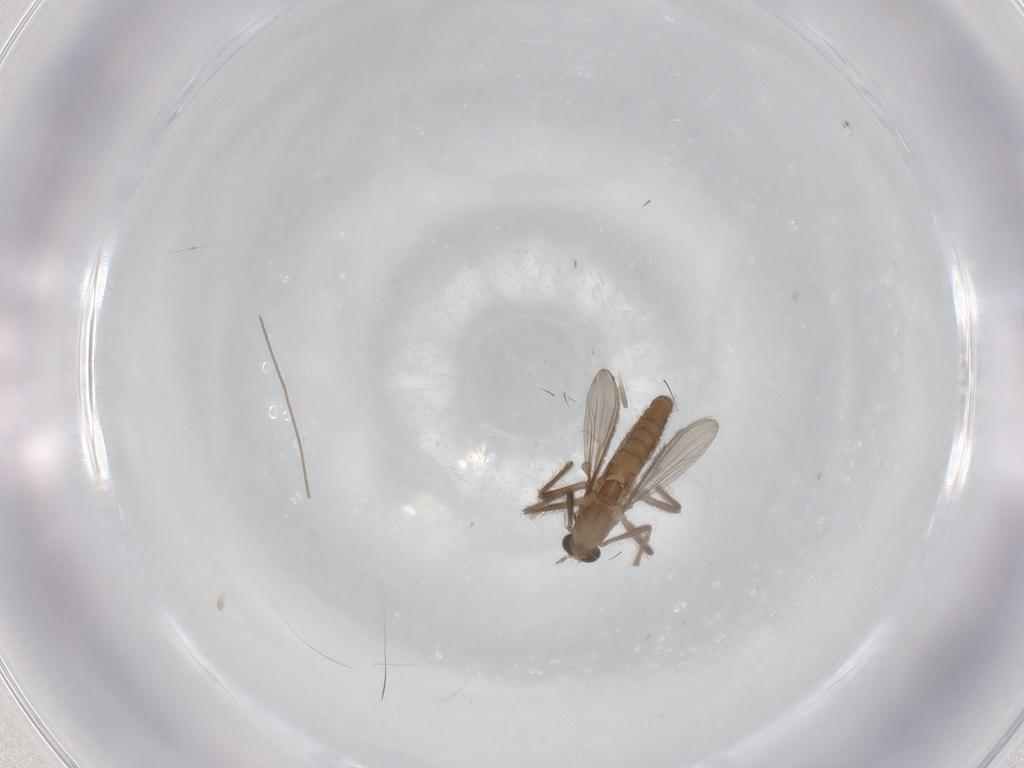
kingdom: Animalia
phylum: Arthropoda
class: Insecta
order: Diptera
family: Chironomidae
